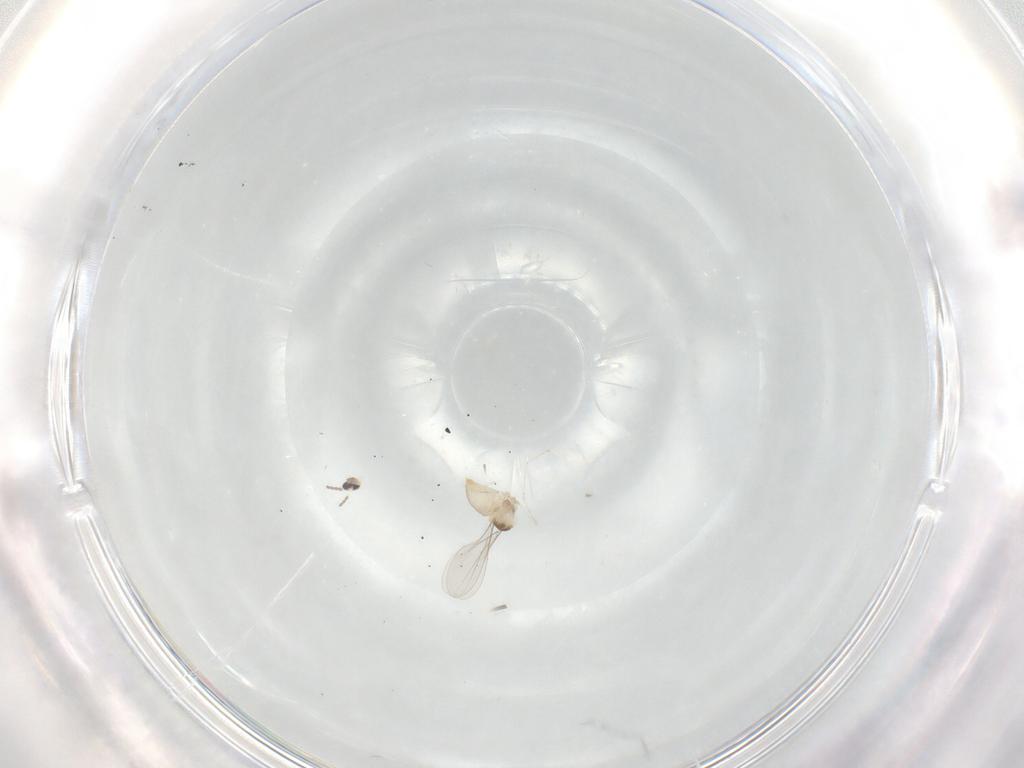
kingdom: Animalia
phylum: Arthropoda
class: Insecta
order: Diptera
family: Cecidomyiidae
